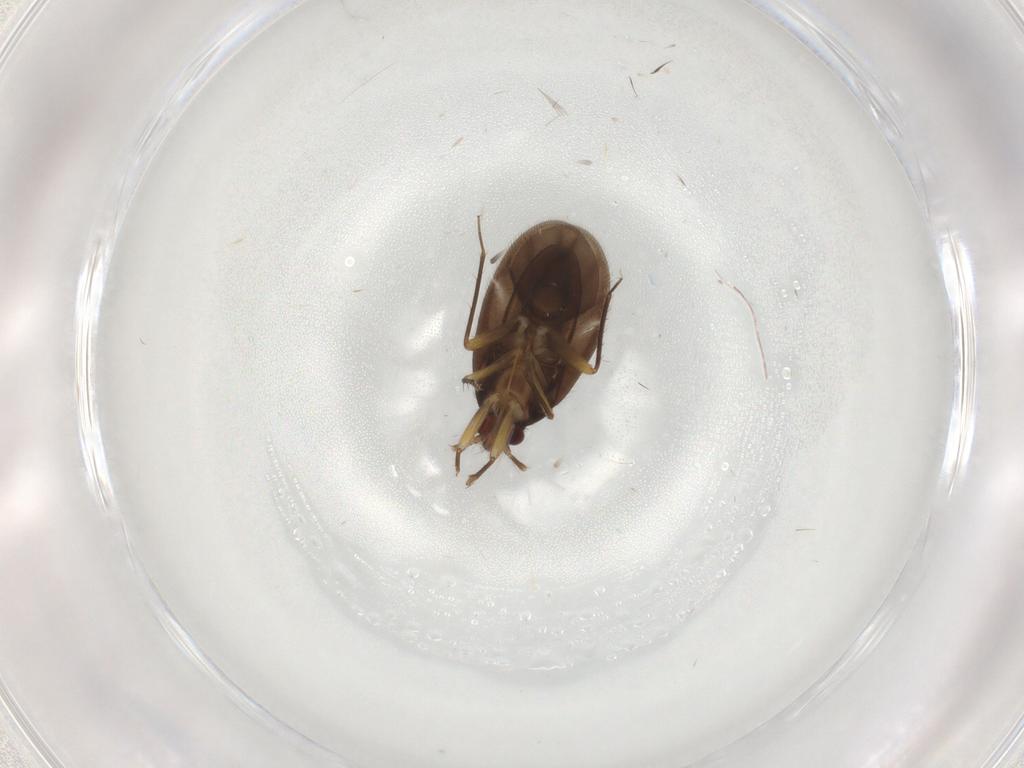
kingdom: Animalia
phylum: Arthropoda
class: Insecta
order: Hemiptera
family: Ceratocombidae
